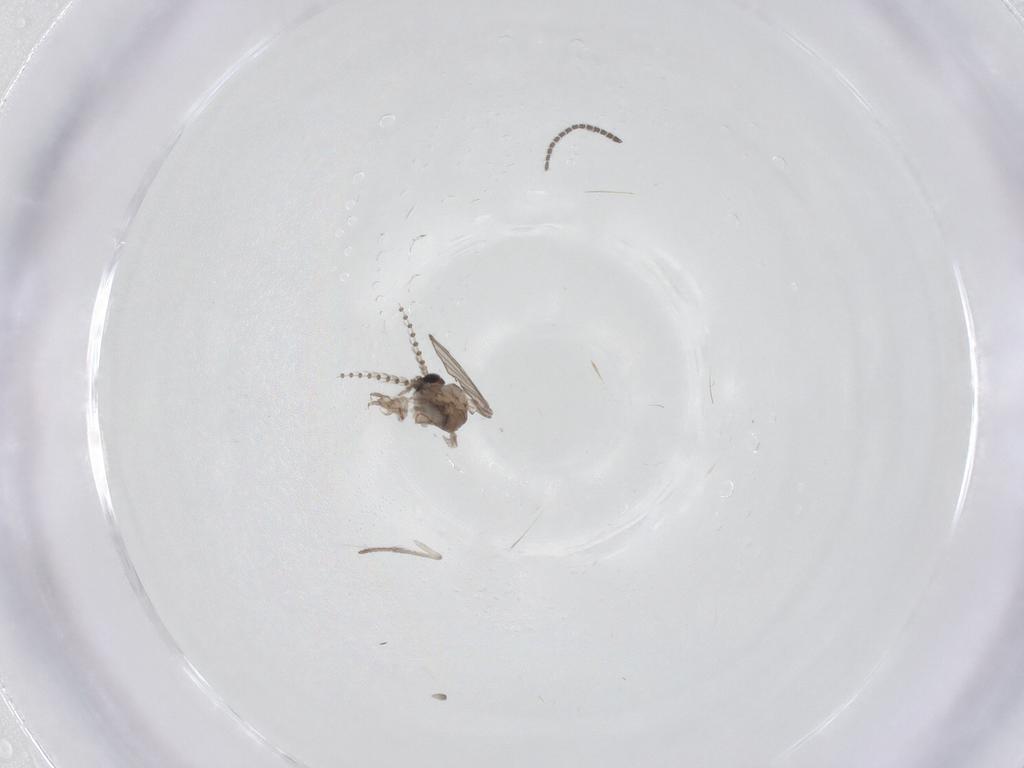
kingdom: Animalia
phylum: Arthropoda
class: Insecta
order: Diptera
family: Psychodidae
